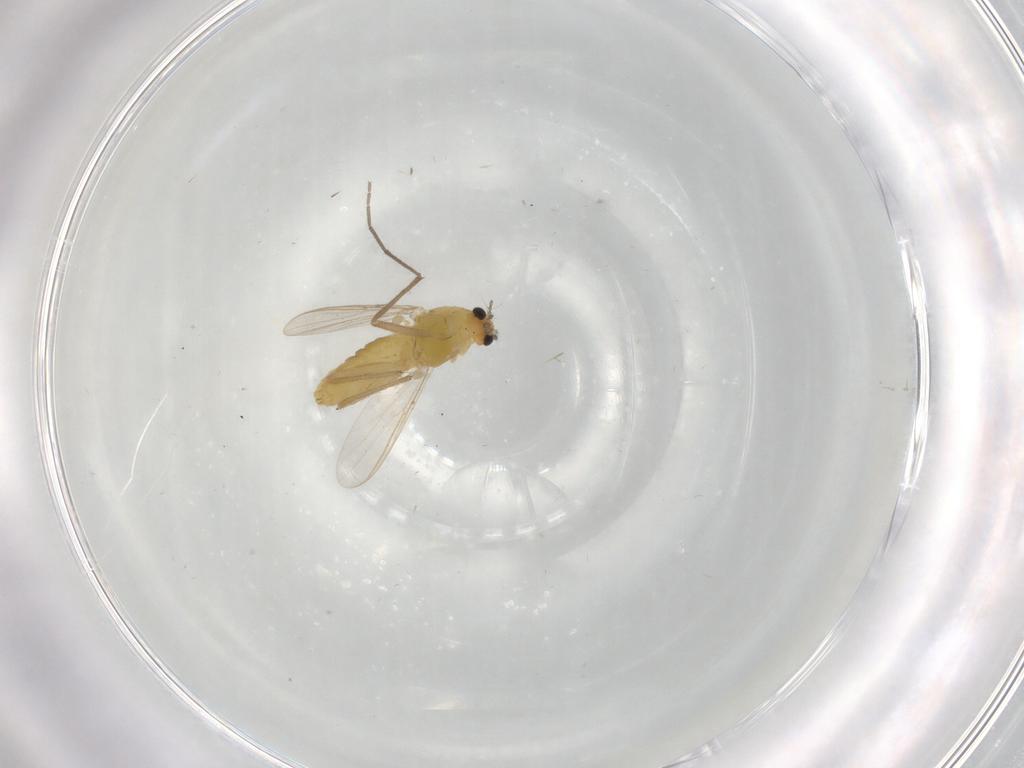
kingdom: Animalia
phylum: Arthropoda
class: Insecta
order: Diptera
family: Chironomidae
